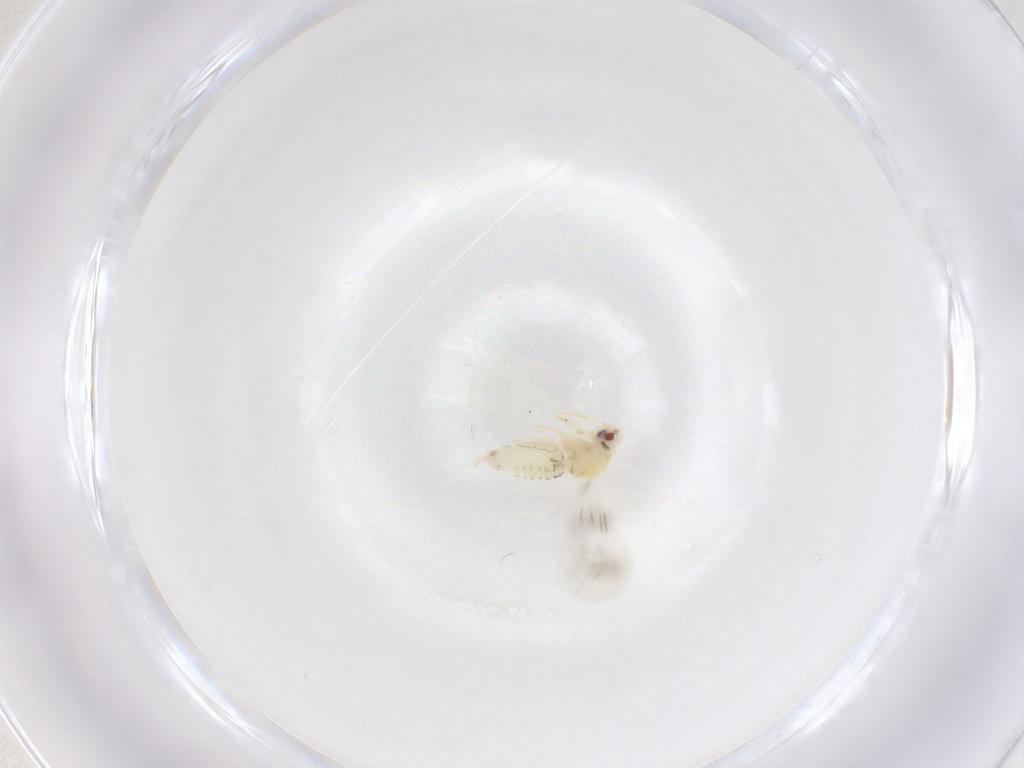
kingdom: Animalia
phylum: Arthropoda
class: Insecta
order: Hemiptera
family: Aleyrodidae
